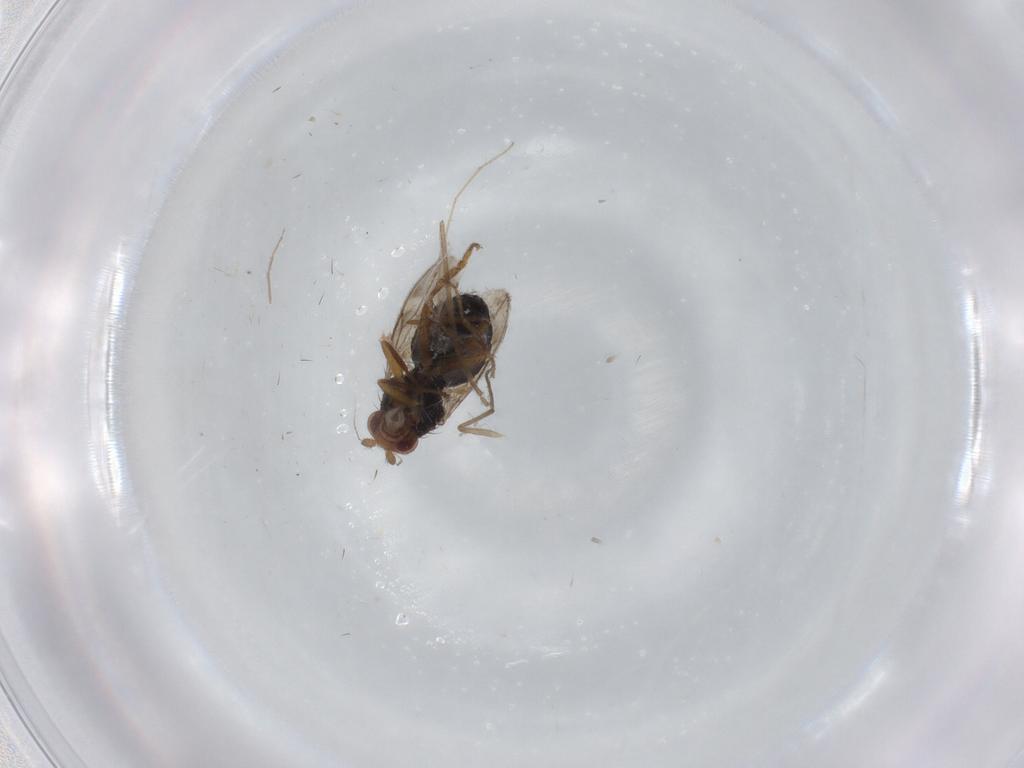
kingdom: Animalia
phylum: Arthropoda
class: Insecta
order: Diptera
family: Sphaeroceridae
